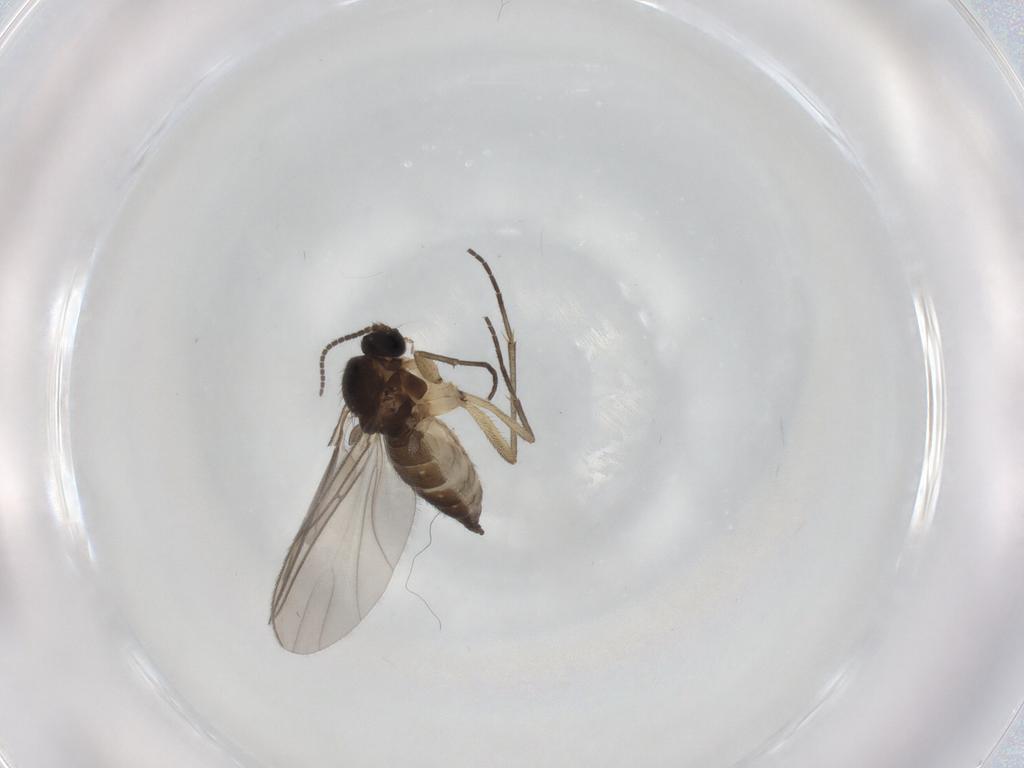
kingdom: Animalia
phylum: Arthropoda
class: Insecta
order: Diptera
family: Sciaridae
